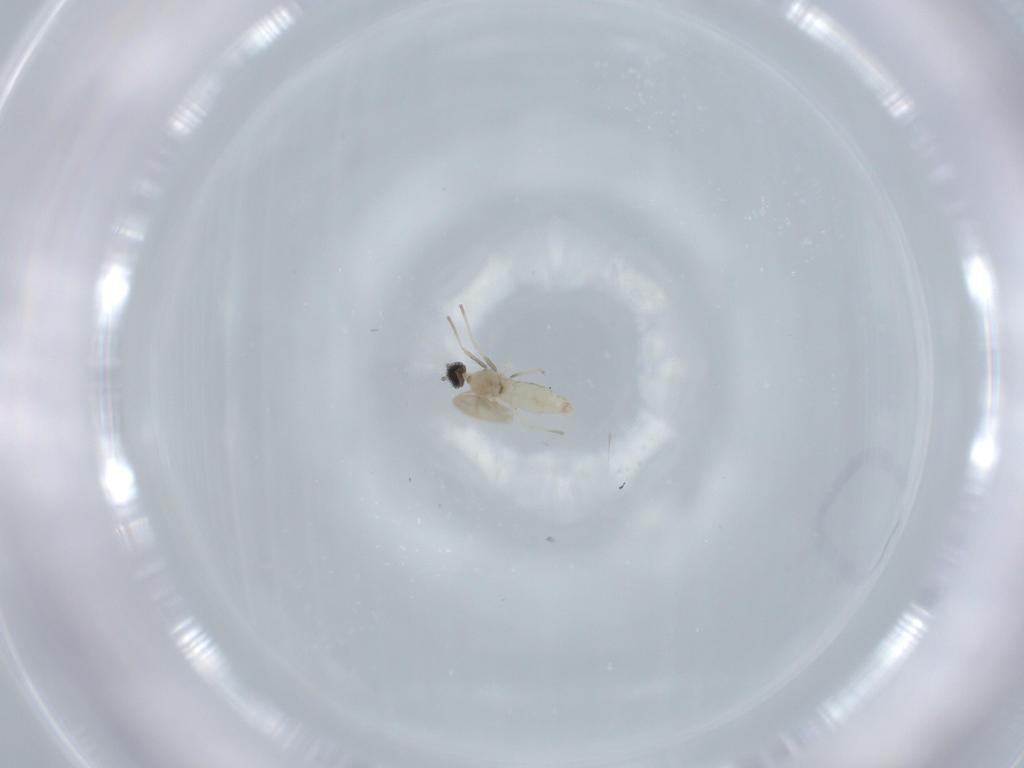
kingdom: Animalia
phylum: Arthropoda
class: Insecta
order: Diptera
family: Cecidomyiidae
